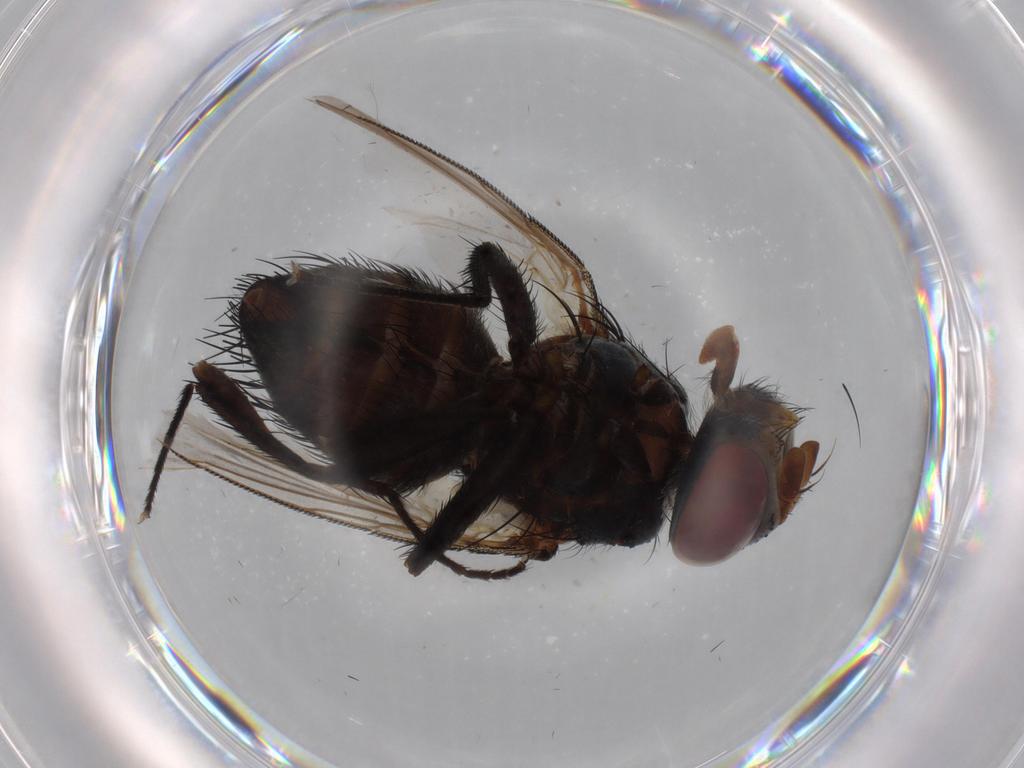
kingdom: Animalia
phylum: Arthropoda
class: Insecta
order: Diptera
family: Tachinidae
